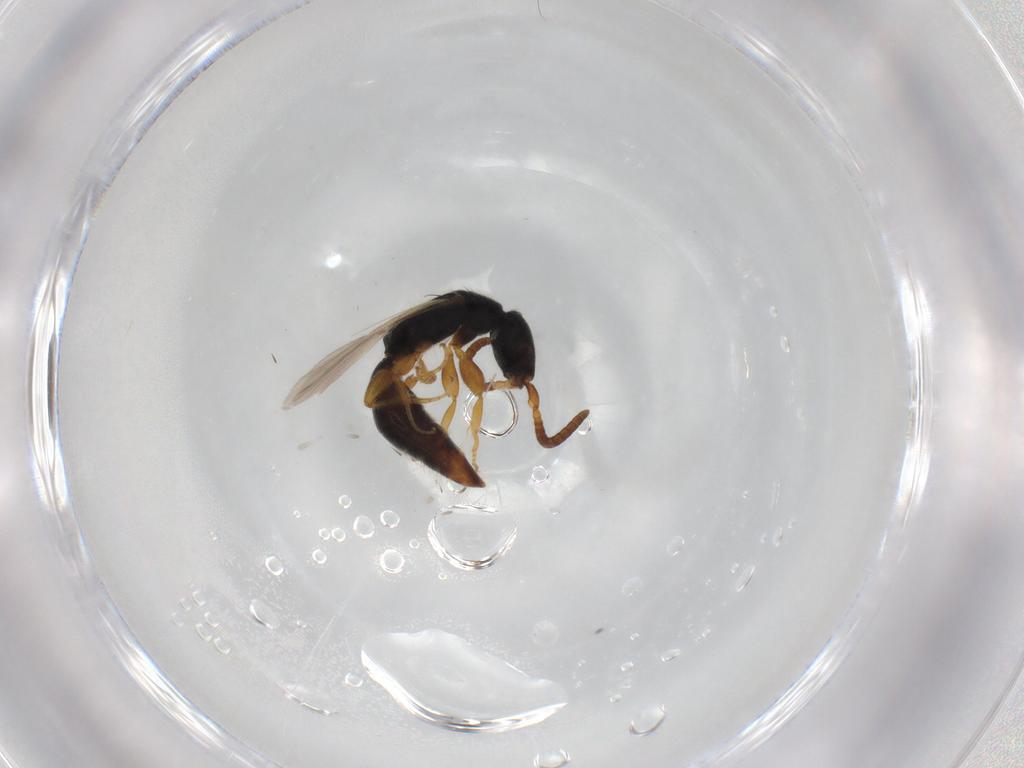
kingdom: Animalia
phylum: Arthropoda
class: Insecta
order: Hymenoptera
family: Bethylidae
